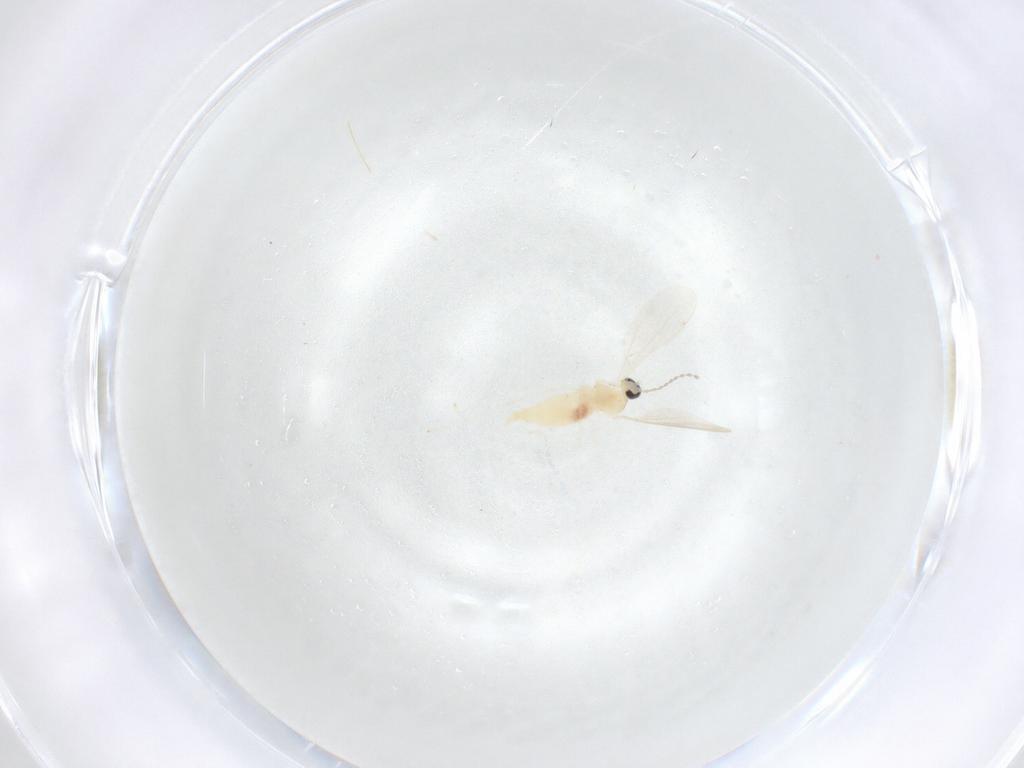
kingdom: Animalia
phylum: Arthropoda
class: Insecta
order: Diptera
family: Cecidomyiidae
